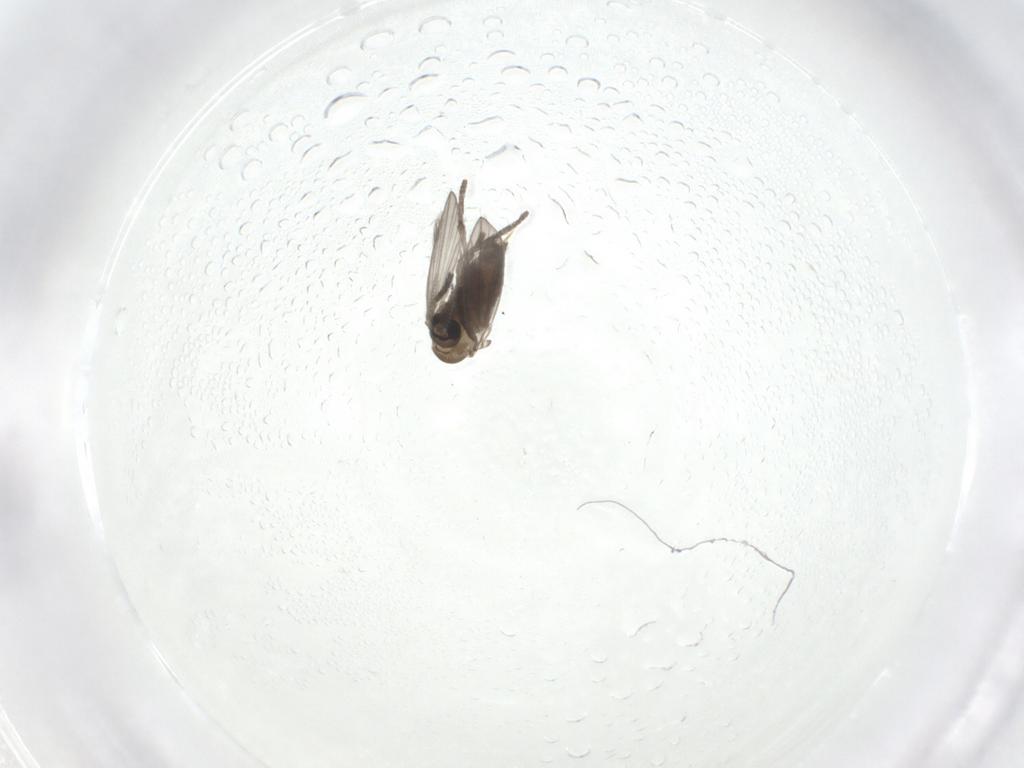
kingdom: Animalia
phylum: Arthropoda
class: Insecta
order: Diptera
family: Psychodidae
